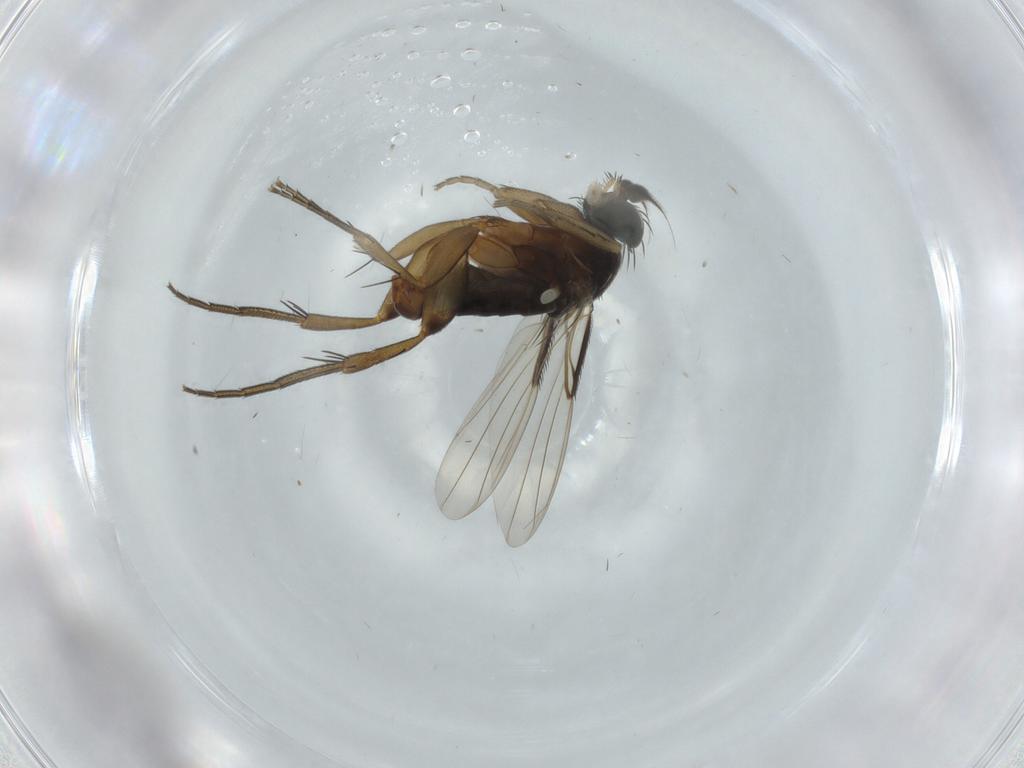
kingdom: Animalia
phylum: Arthropoda
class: Insecta
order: Diptera
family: Phoridae
